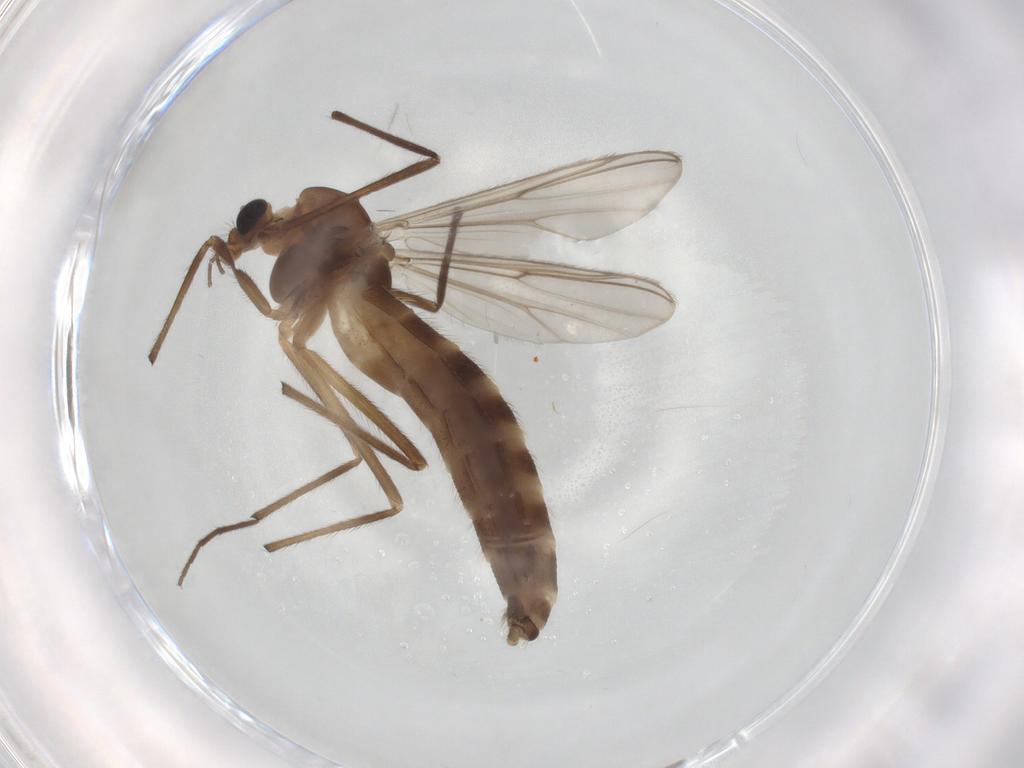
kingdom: Animalia
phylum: Arthropoda
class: Insecta
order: Diptera
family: Chironomidae
